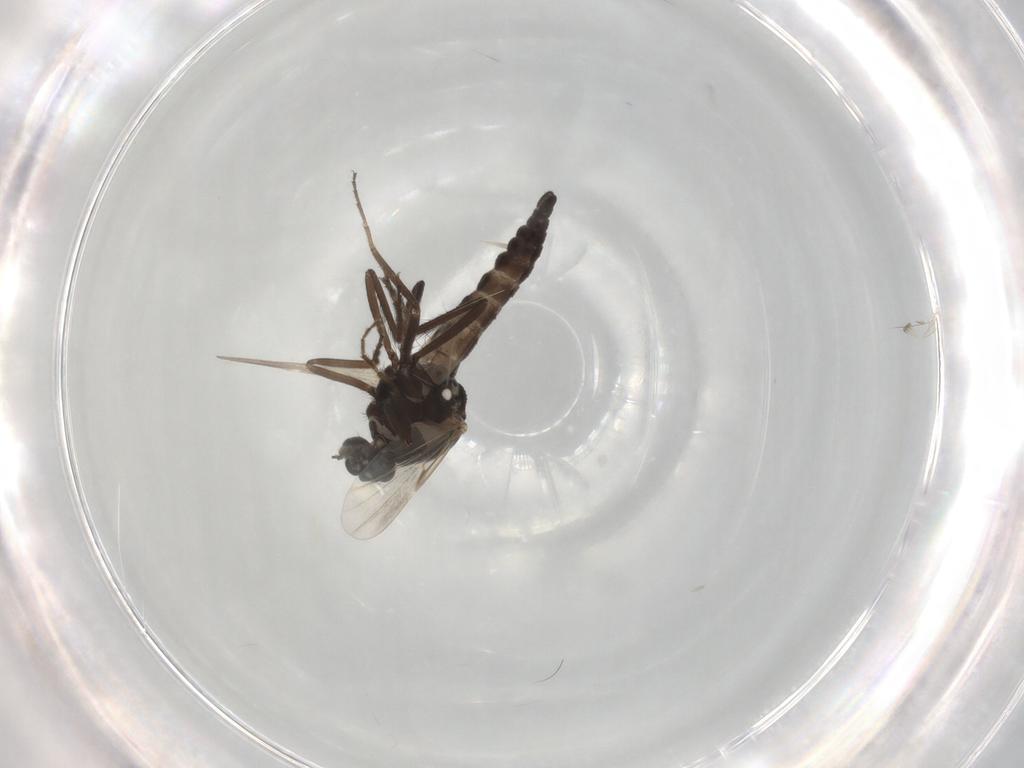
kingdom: Animalia
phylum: Arthropoda
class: Insecta
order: Diptera
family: Ceratopogonidae
